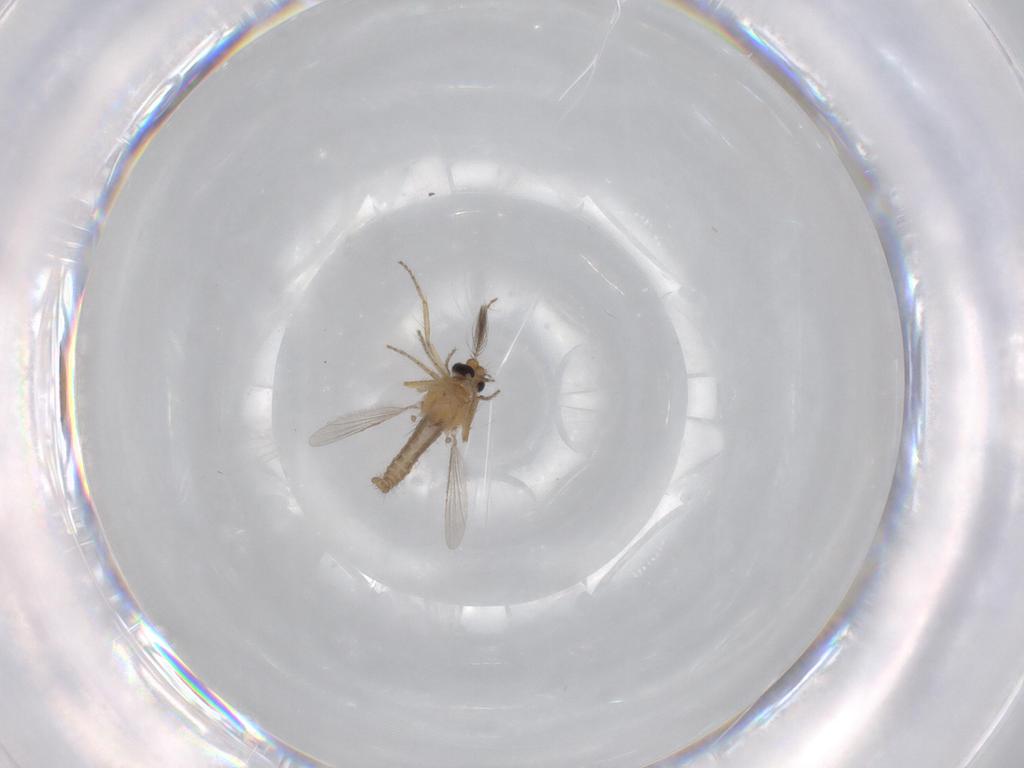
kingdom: Animalia
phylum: Arthropoda
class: Insecta
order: Diptera
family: Ceratopogonidae
